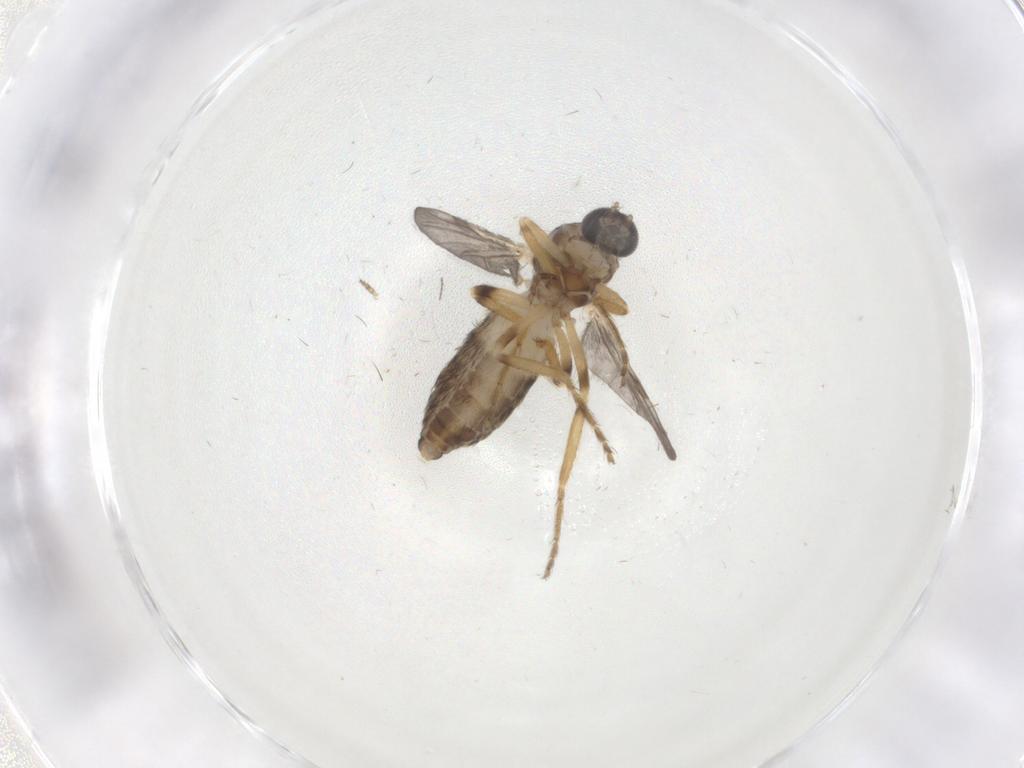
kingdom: Animalia
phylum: Arthropoda
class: Insecta
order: Diptera
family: Ceratopogonidae
